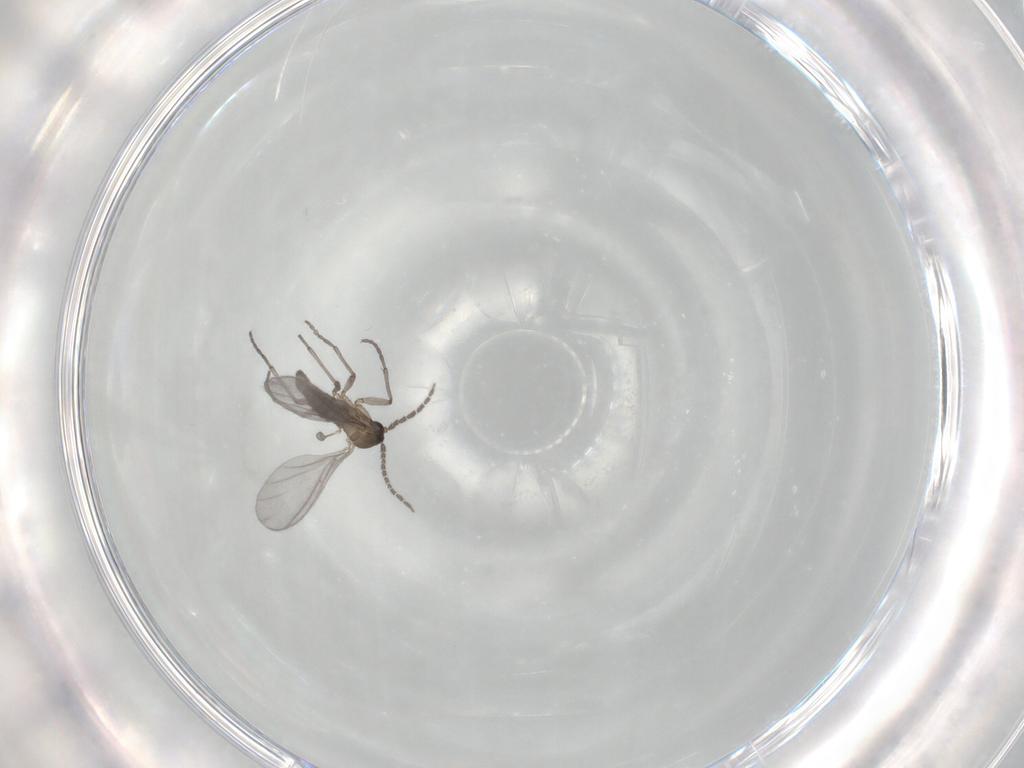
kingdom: Animalia
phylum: Arthropoda
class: Insecta
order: Diptera
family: Sciaridae
